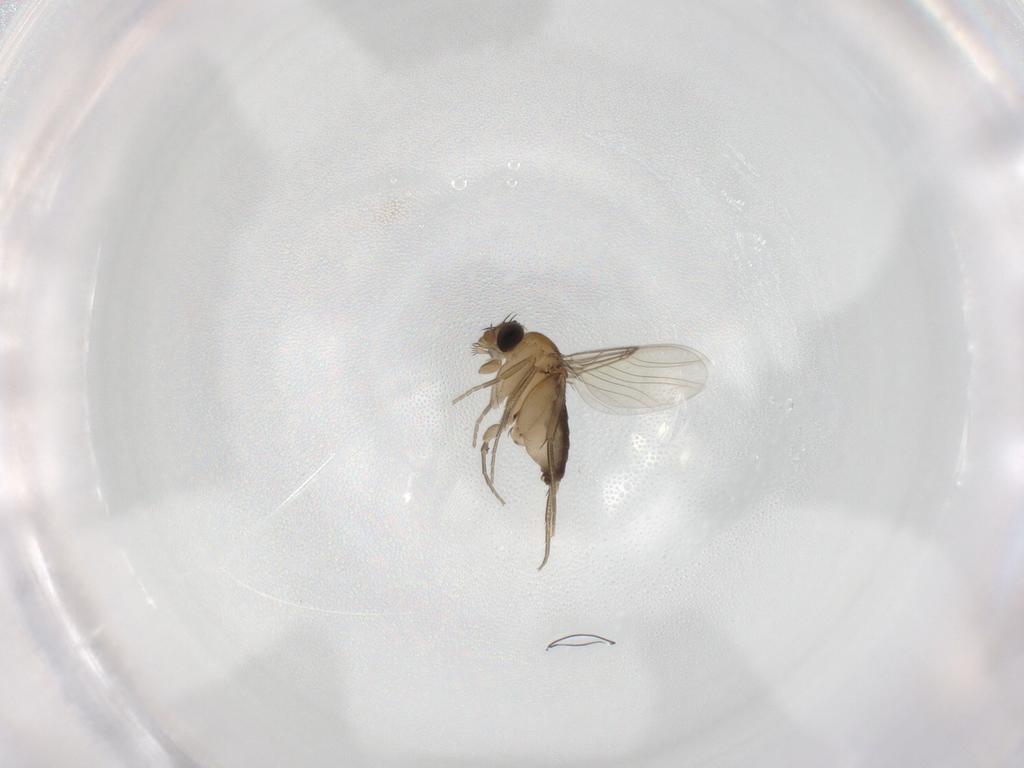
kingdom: Animalia
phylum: Arthropoda
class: Insecta
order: Diptera
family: Phoridae
